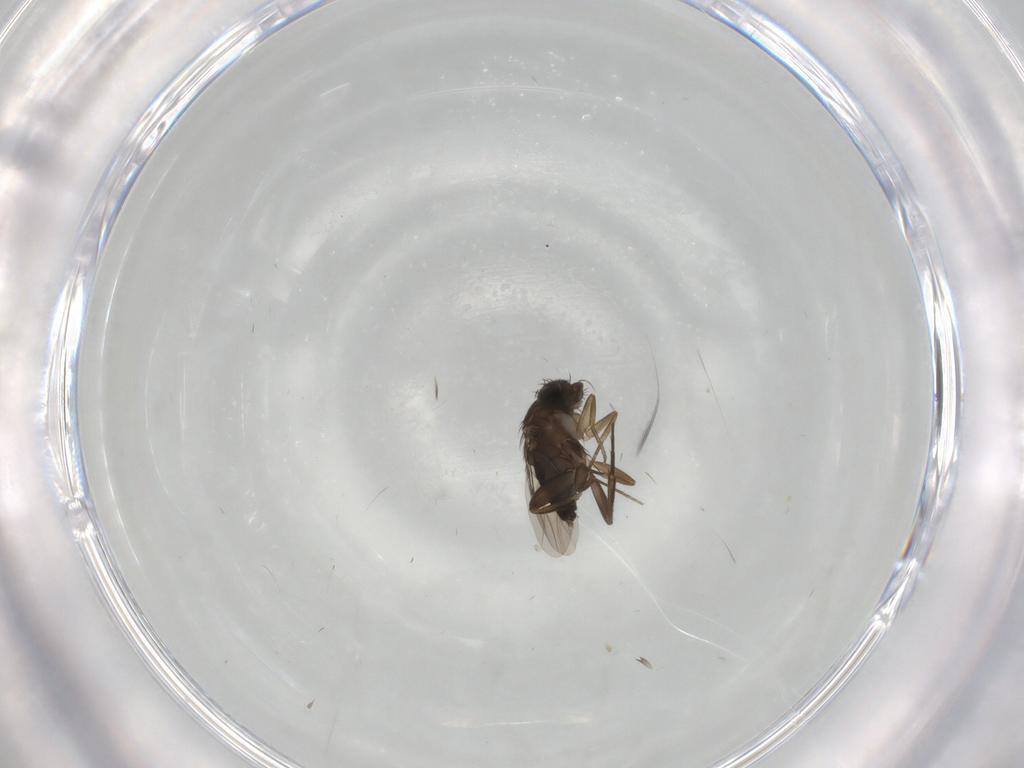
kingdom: Animalia
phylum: Arthropoda
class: Insecta
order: Diptera
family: Phoridae
